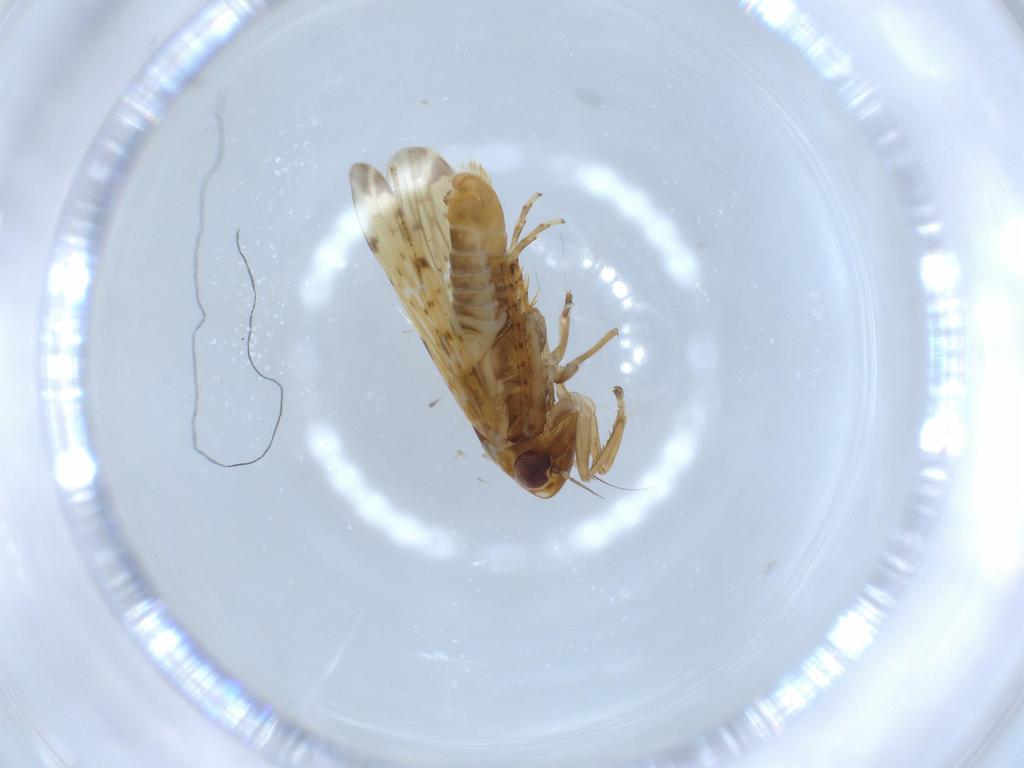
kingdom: Animalia
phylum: Arthropoda
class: Insecta
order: Hemiptera
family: Cicadellidae
